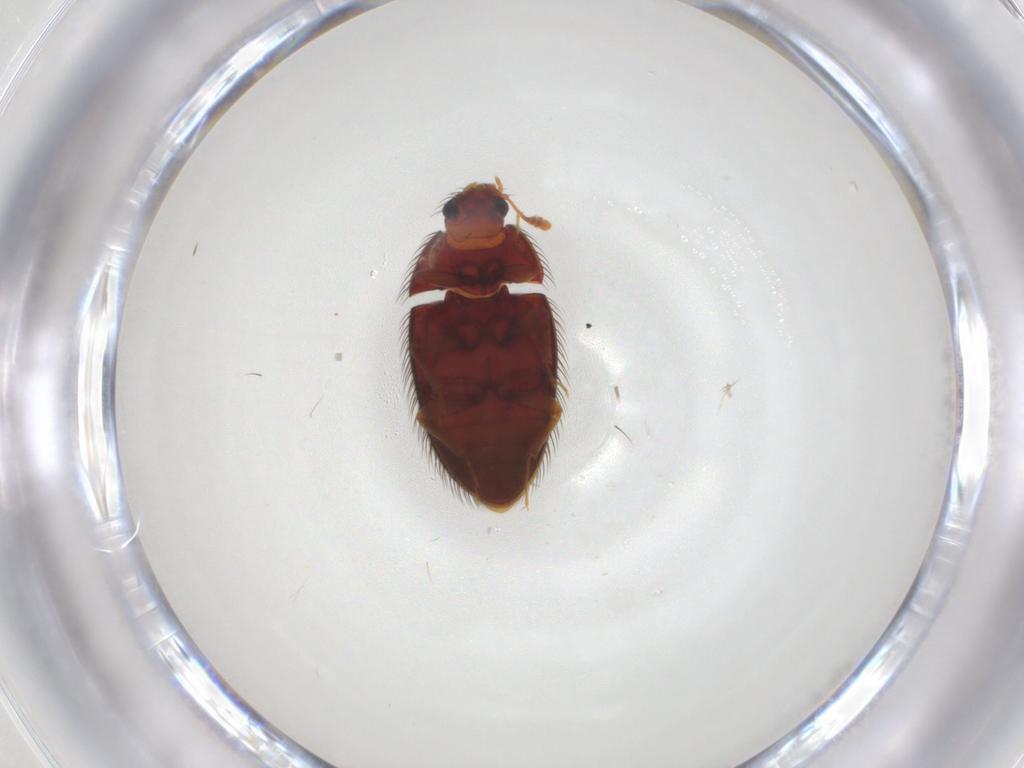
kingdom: Animalia
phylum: Arthropoda
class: Insecta
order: Coleoptera
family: Biphyllidae
